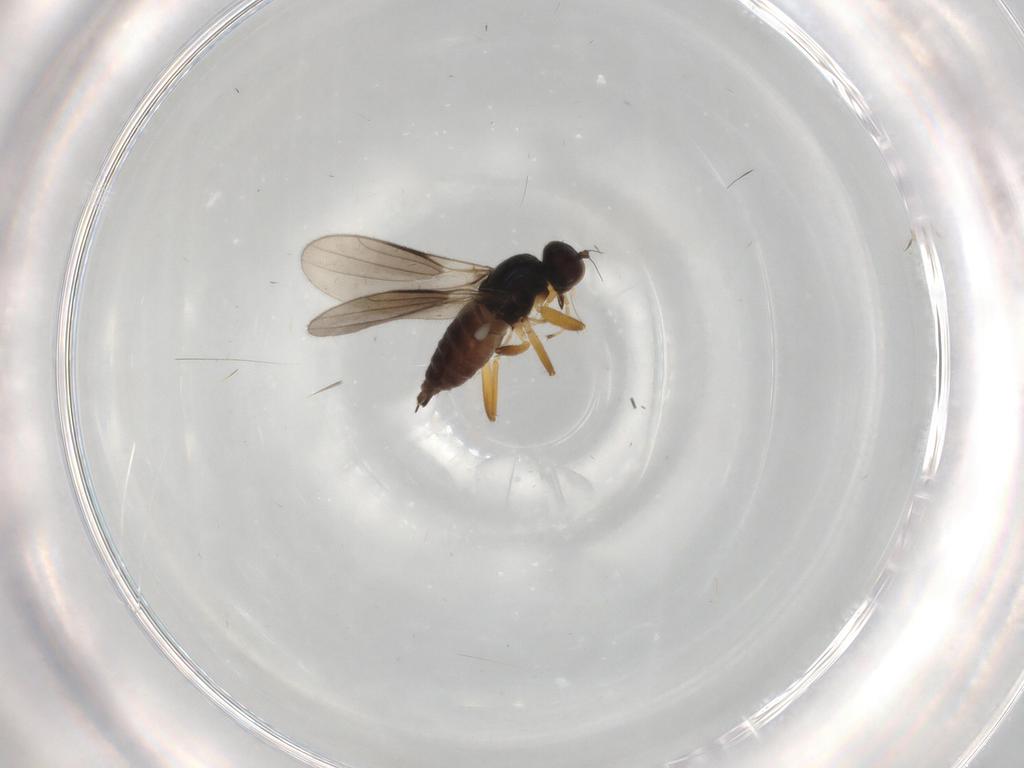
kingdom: Animalia
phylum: Arthropoda
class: Insecta
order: Diptera
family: Hybotidae
